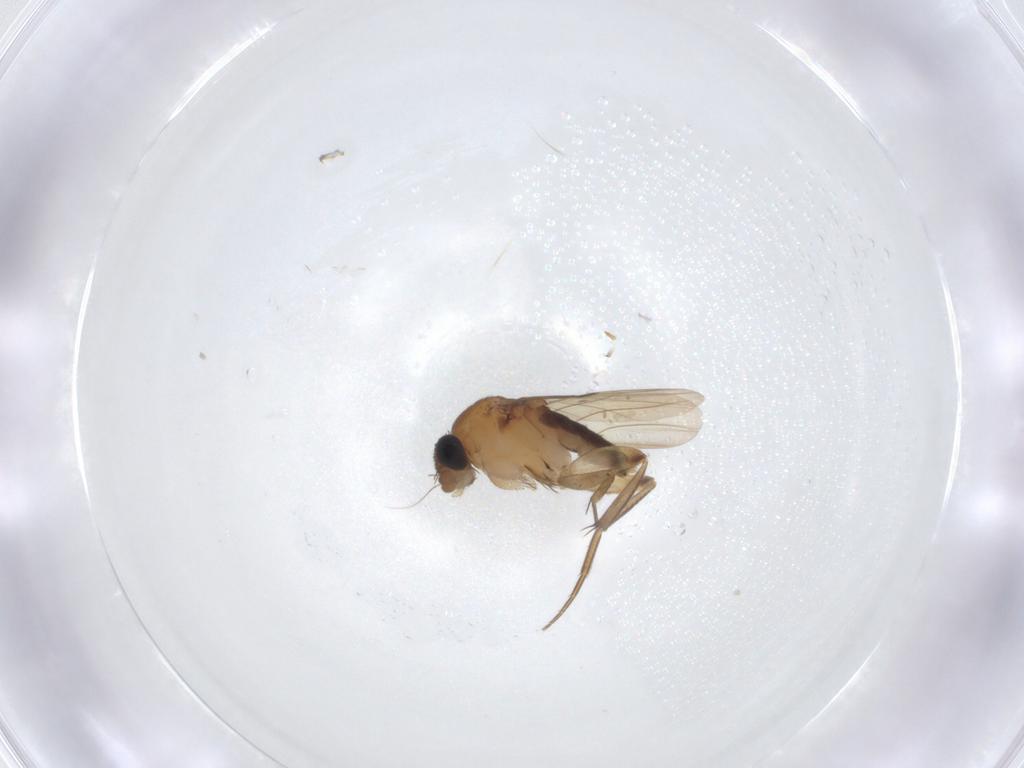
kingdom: Animalia
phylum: Arthropoda
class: Insecta
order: Diptera
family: Phoridae
